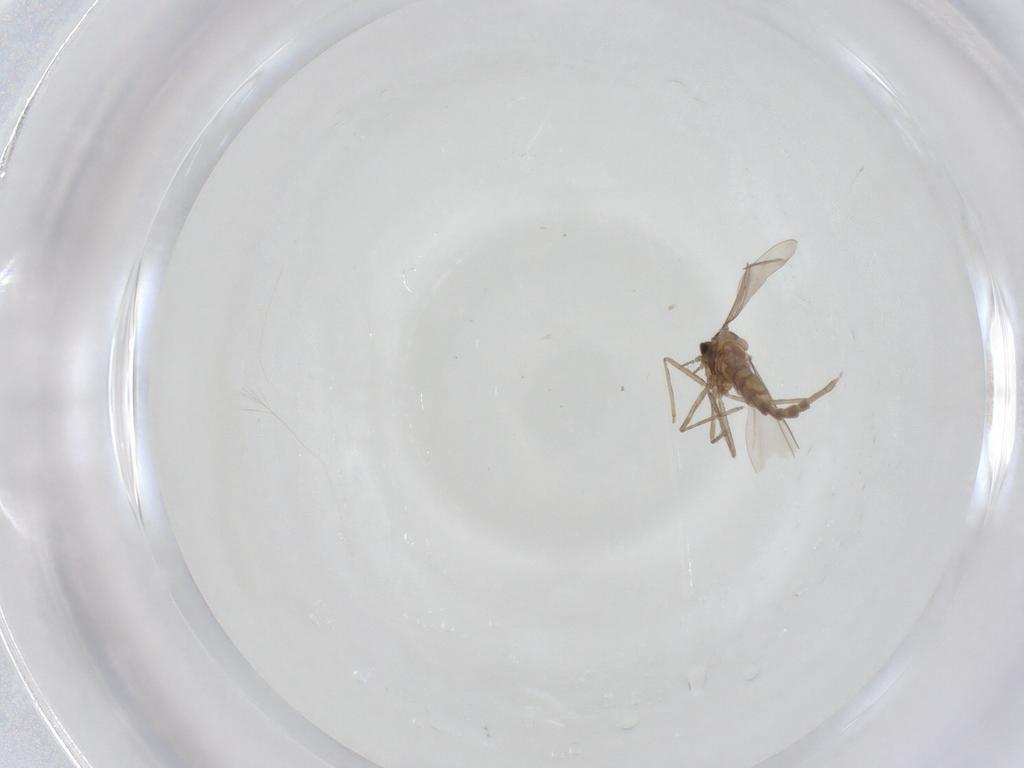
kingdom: Animalia
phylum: Arthropoda
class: Insecta
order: Diptera
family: Chloropidae
